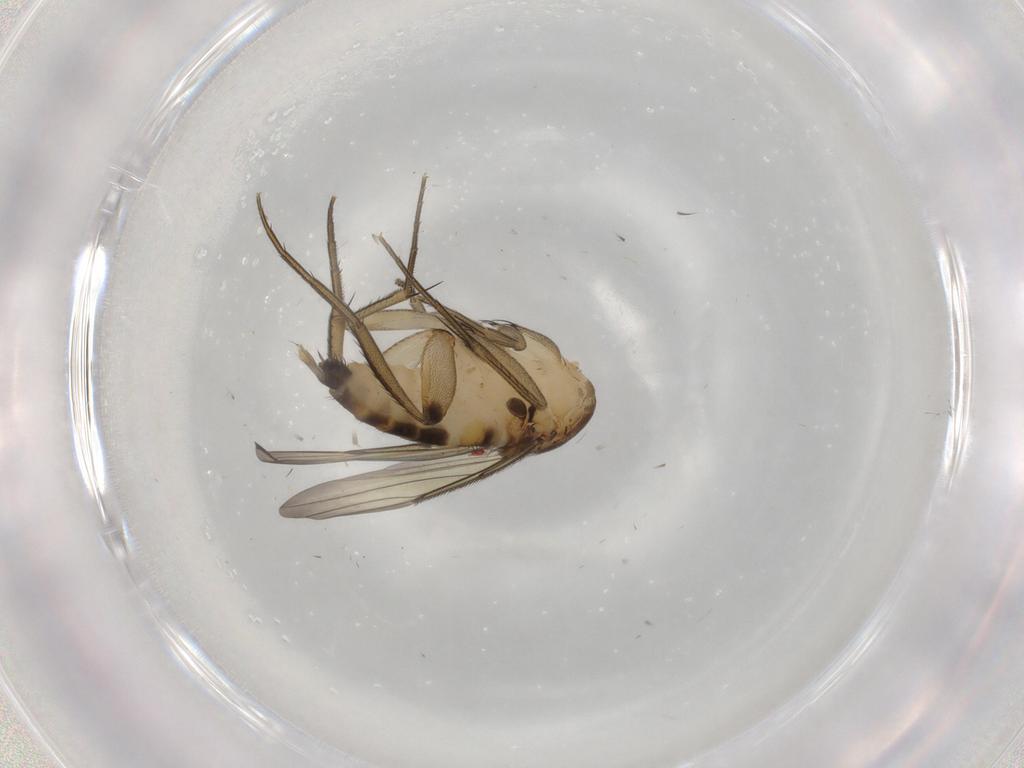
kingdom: Animalia
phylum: Arthropoda
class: Insecta
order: Diptera
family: Phoridae
